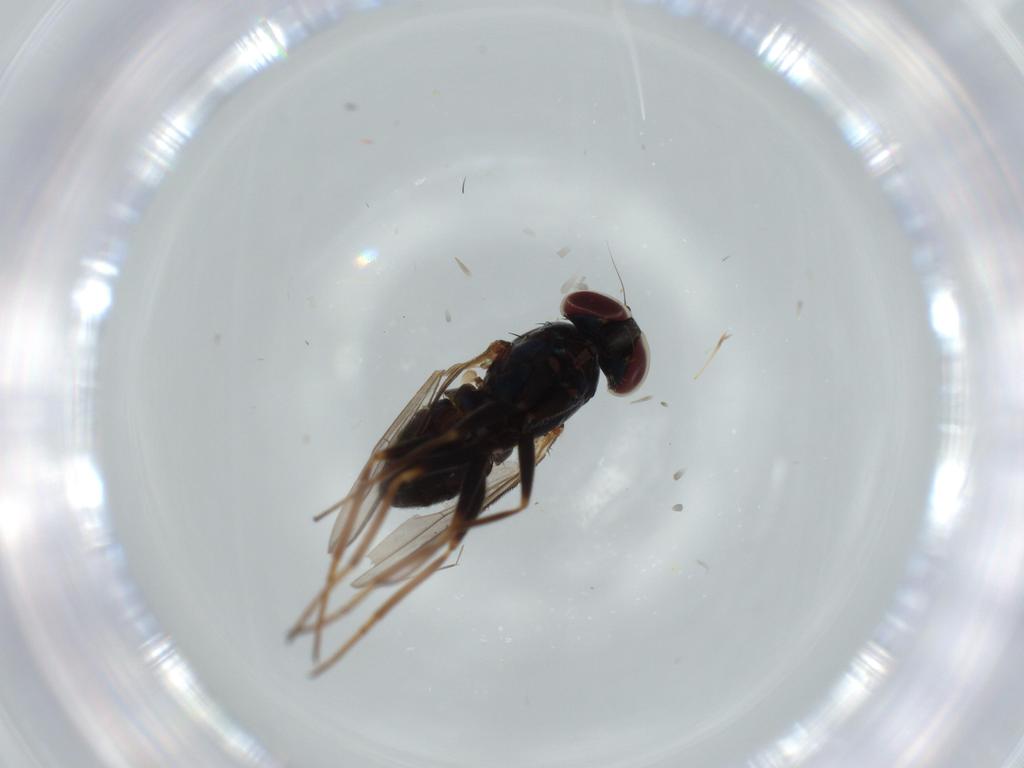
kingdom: Animalia
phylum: Arthropoda
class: Insecta
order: Diptera
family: Dolichopodidae
